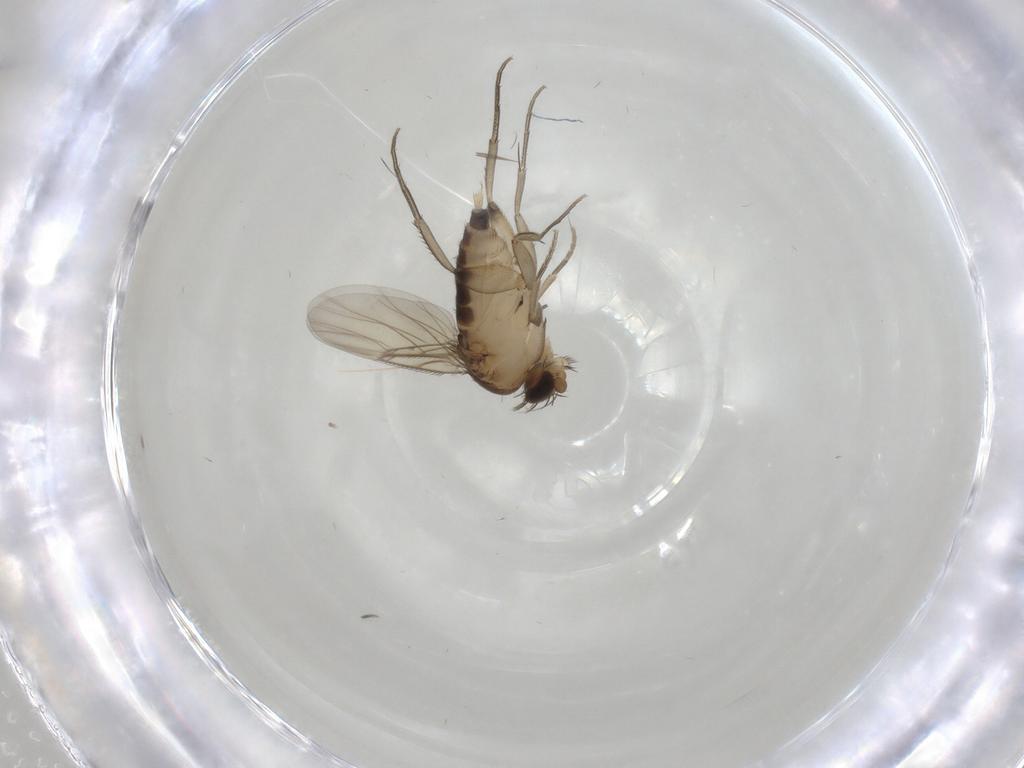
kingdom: Animalia
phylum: Arthropoda
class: Insecta
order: Diptera
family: Phoridae
